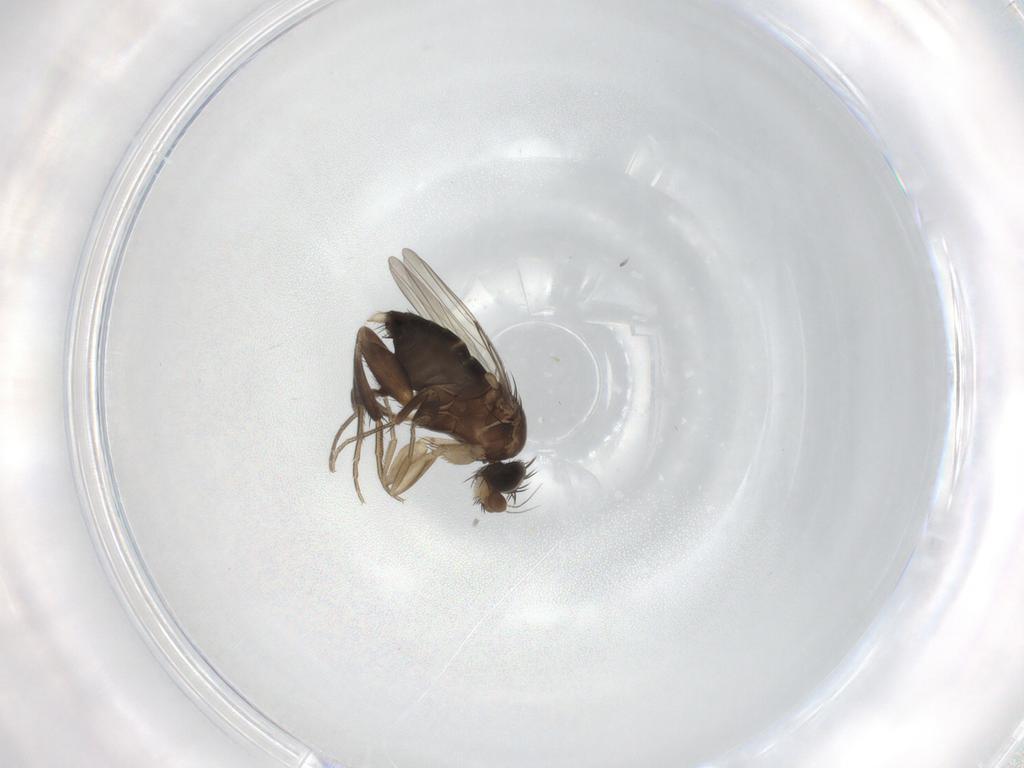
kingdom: Animalia
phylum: Arthropoda
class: Insecta
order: Diptera
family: Phoridae
